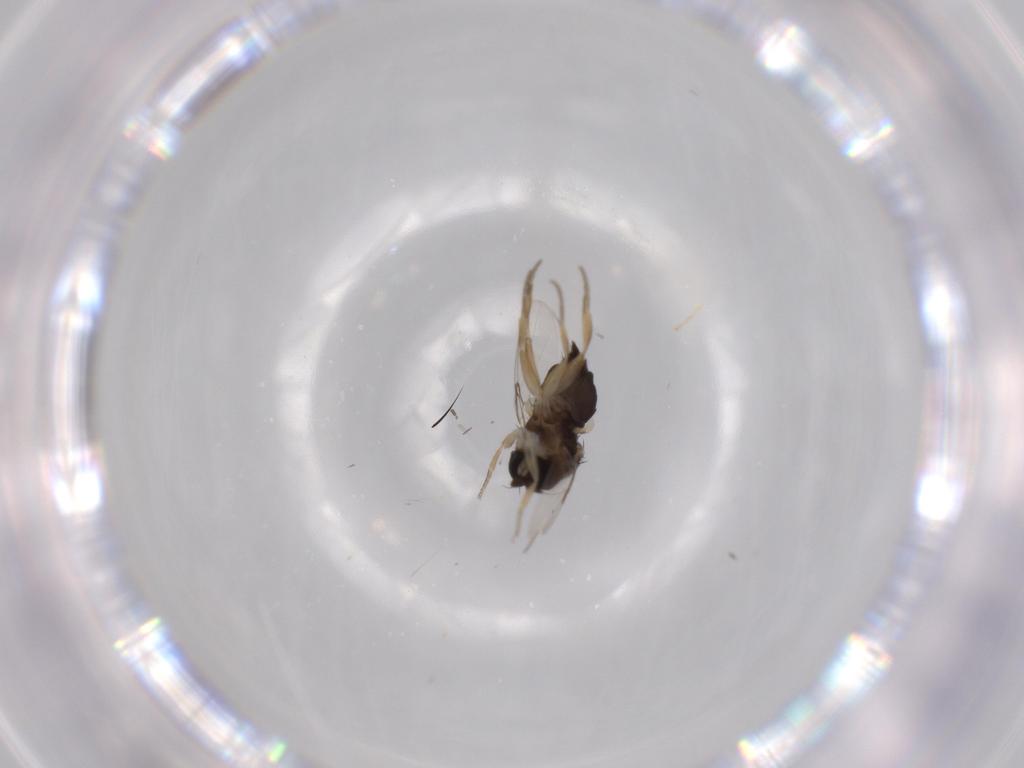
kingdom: Animalia
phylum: Arthropoda
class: Insecta
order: Diptera
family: Phoridae
